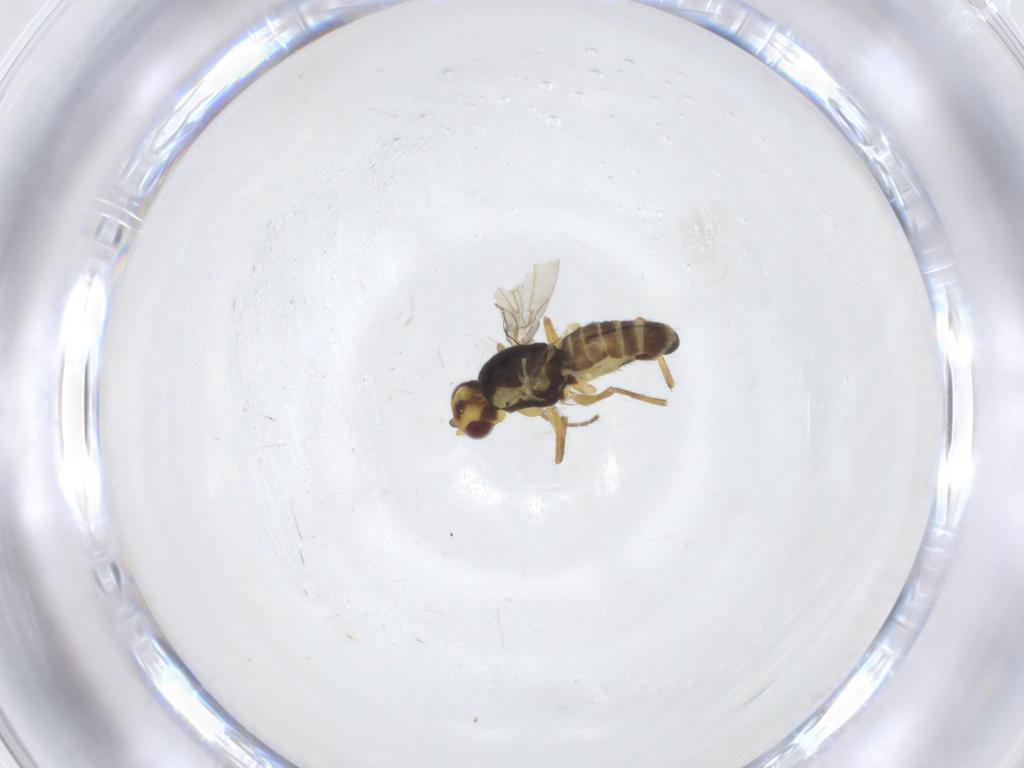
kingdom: Animalia
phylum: Arthropoda
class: Insecta
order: Diptera
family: Agromyzidae
